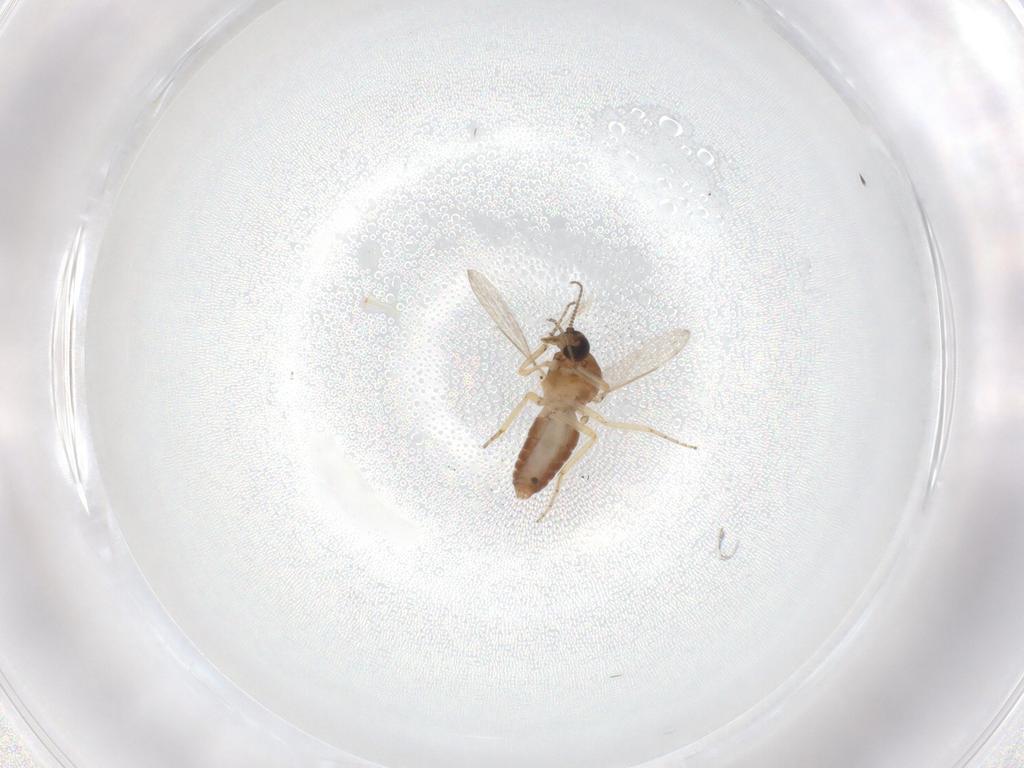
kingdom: Animalia
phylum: Arthropoda
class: Insecta
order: Diptera
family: Ceratopogonidae
